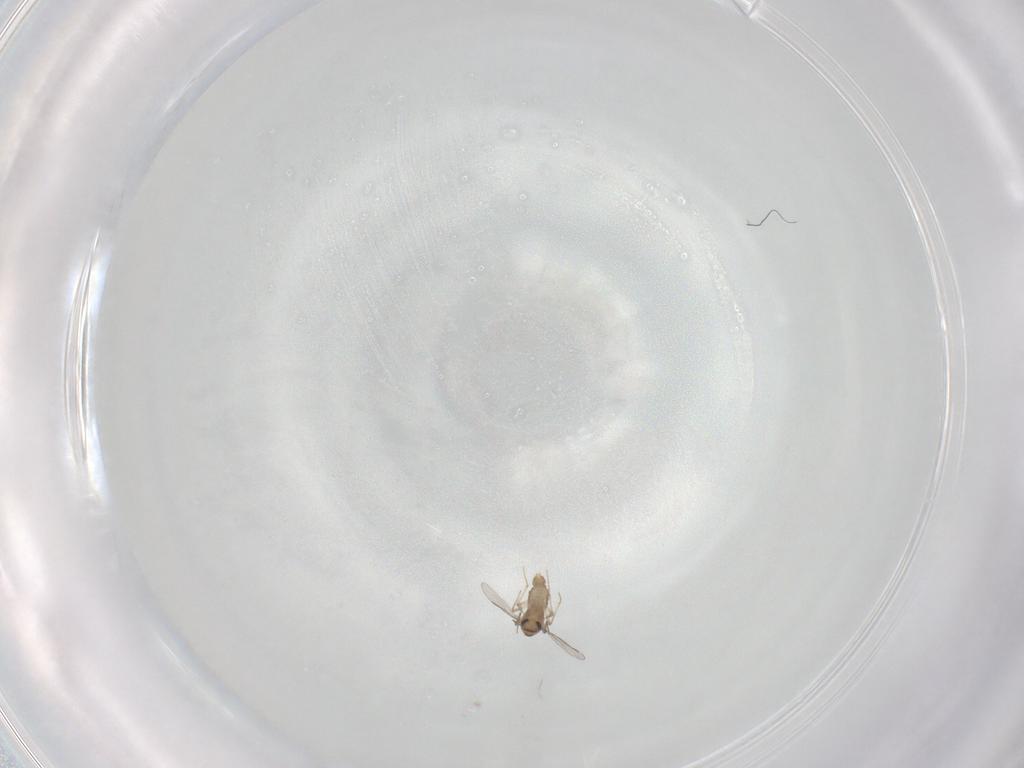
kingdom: Animalia
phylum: Arthropoda
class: Insecta
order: Diptera
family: Chironomidae
